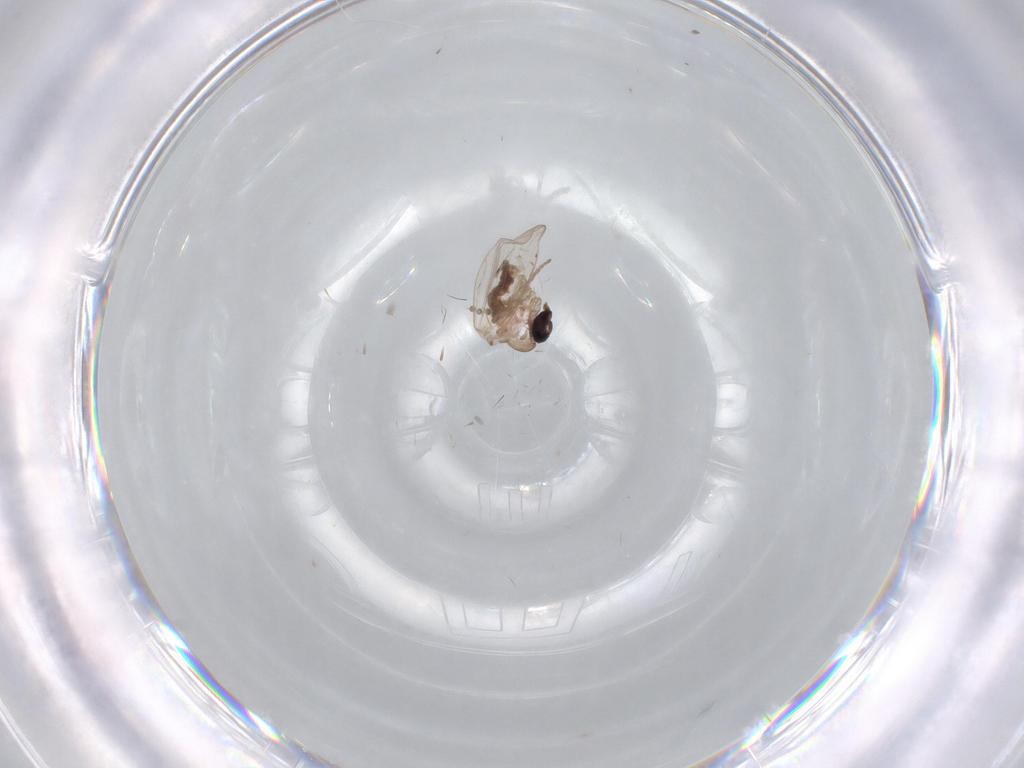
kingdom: Animalia
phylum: Arthropoda
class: Insecta
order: Diptera
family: Psychodidae
